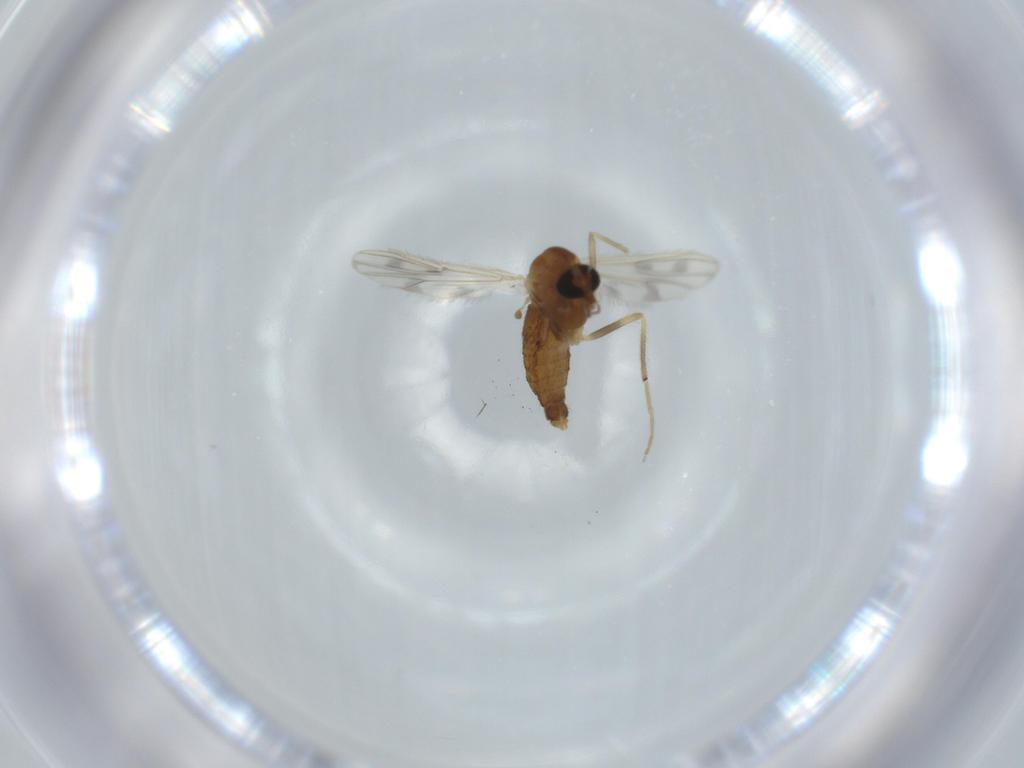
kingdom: Animalia
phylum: Arthropoda
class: Insecta
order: Diptera
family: Chironomidae
